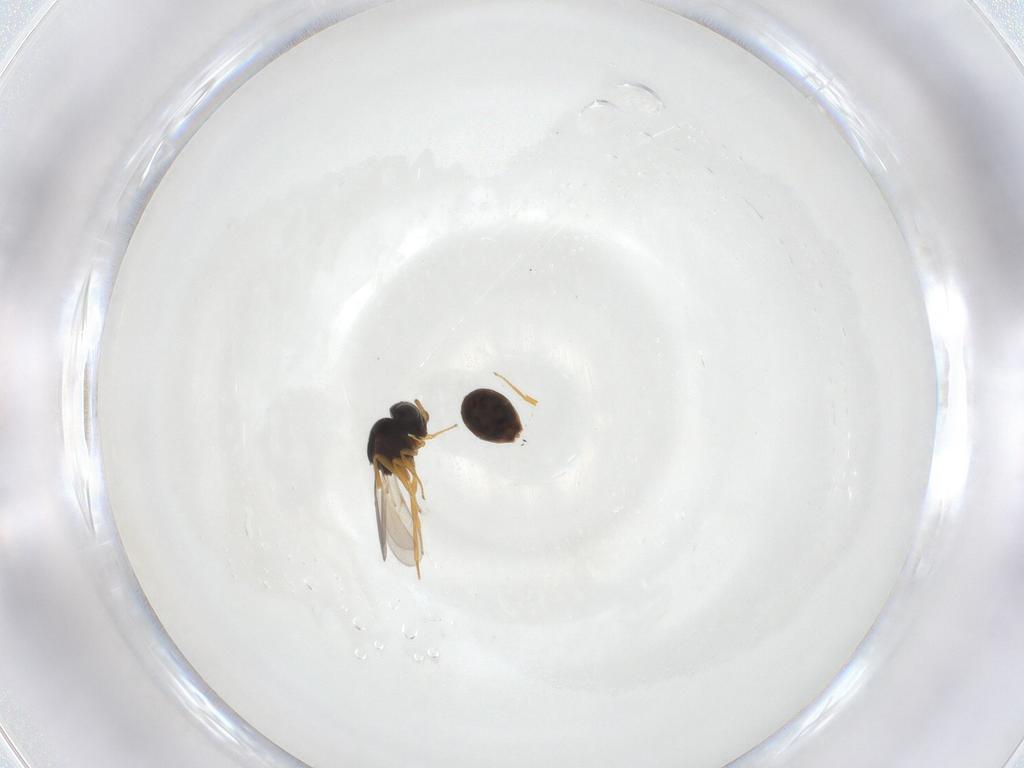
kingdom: Animalia
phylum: Arthropoda
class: Insecta
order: Hymenoptera
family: Scelionidae
